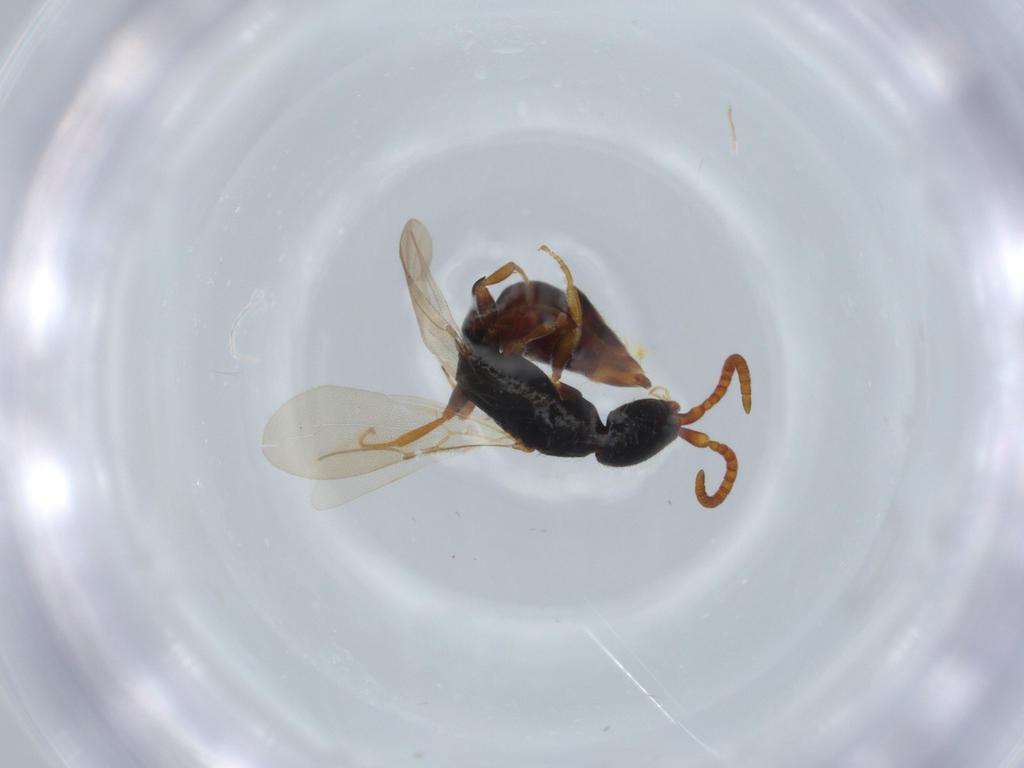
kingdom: Animalia
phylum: Arthropoda
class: Insecta
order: Hymenoptera
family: Bethylidae
